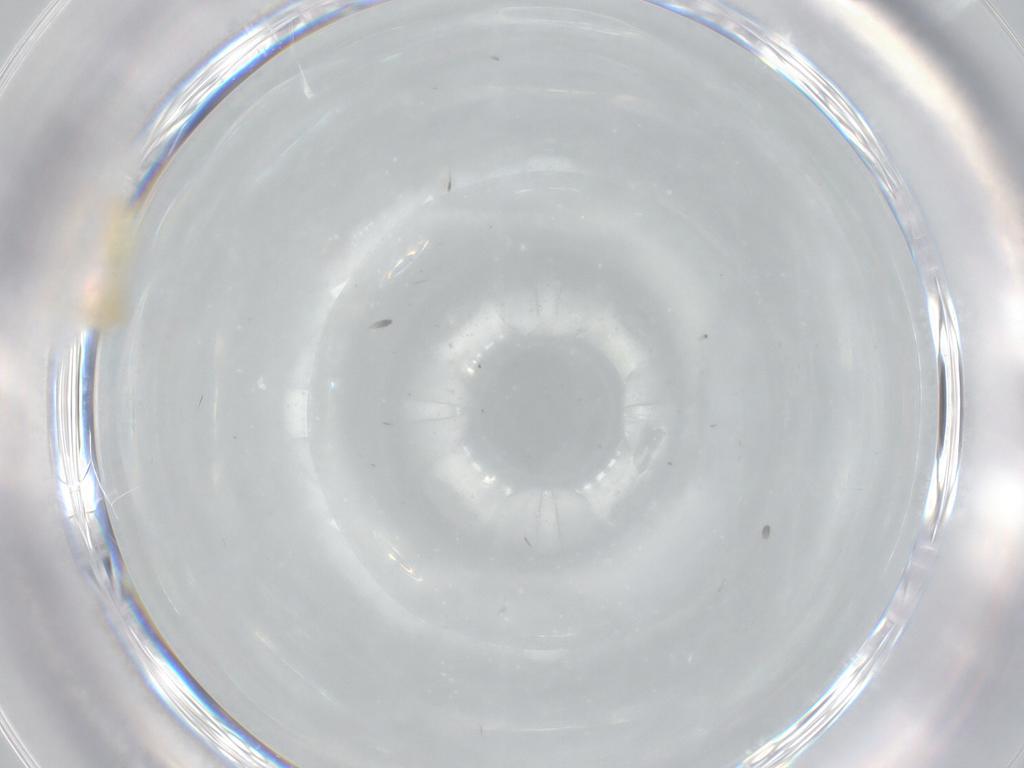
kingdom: Animalia
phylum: Arthropoda
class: Insecta
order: Diptera
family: Cecidomyiidae
